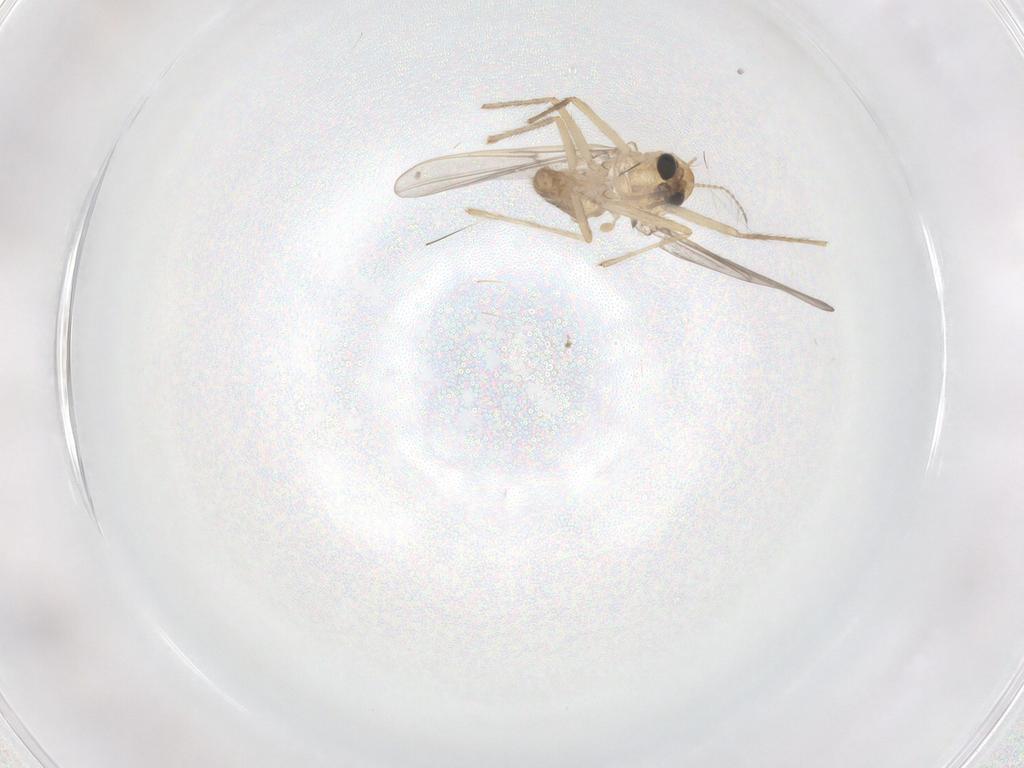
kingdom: Animalia
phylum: Arthropoda
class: Insecta
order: Diptera
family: Chironomidae
